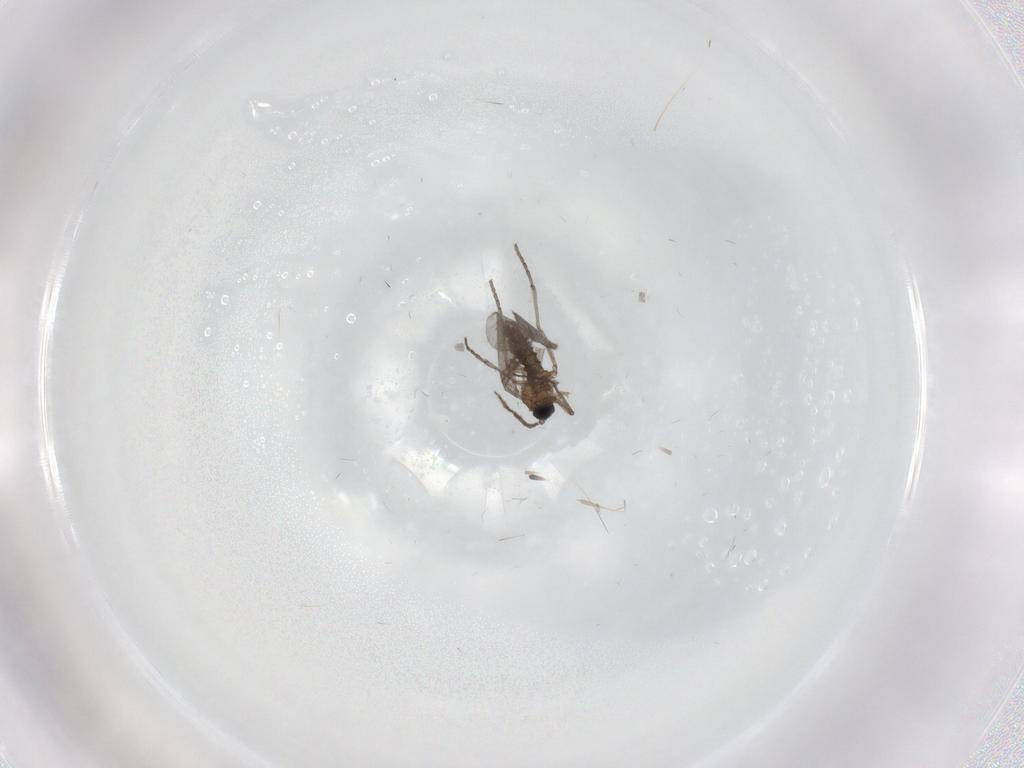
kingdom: Animalia
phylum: Arthropoda
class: Insecta
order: Diptera
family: Sciaridae
